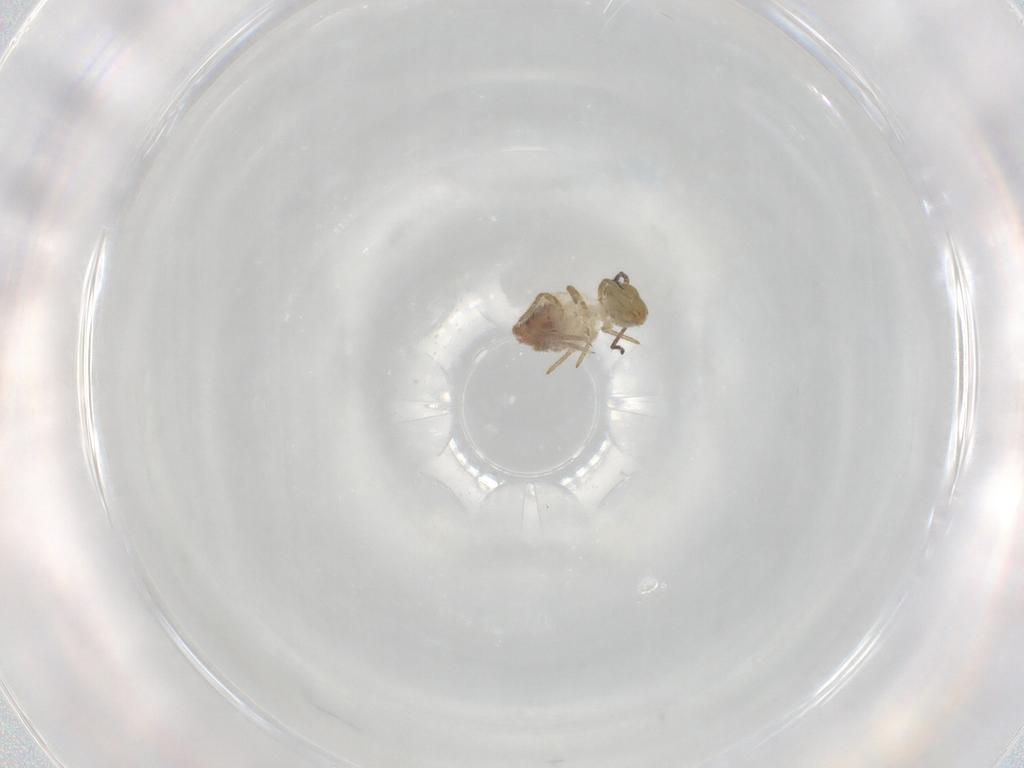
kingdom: Animalia
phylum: Arthropoda
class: Collembola
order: Symphypleona
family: Sminthuridae
